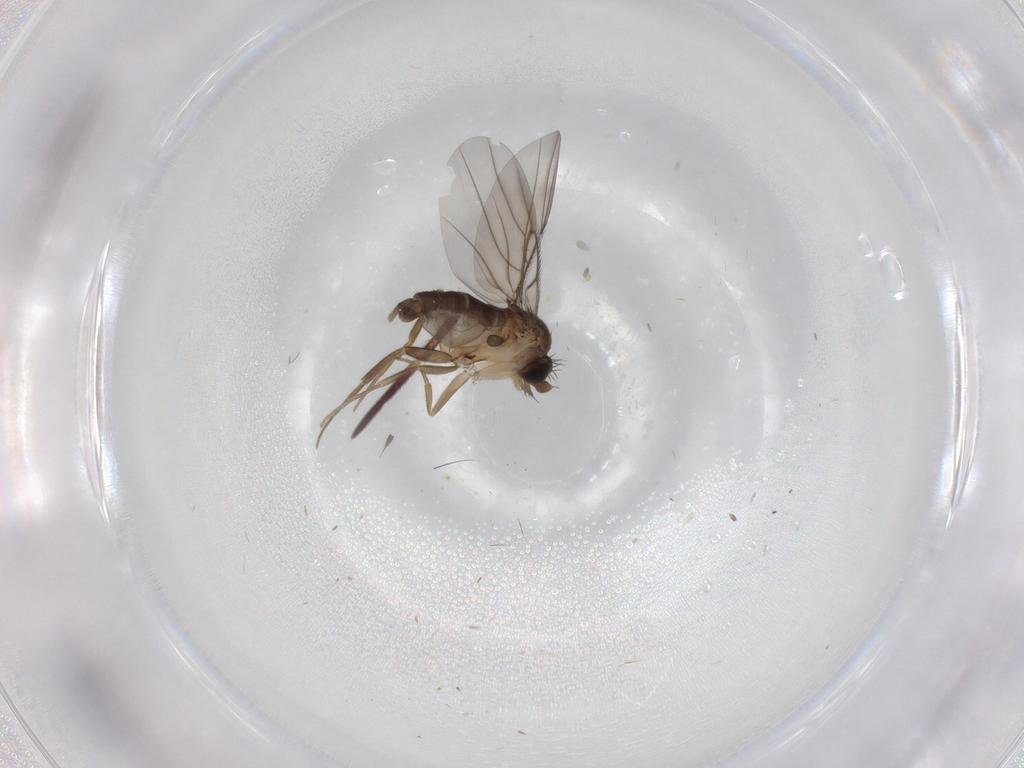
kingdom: Animalia
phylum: Arthropoda
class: Insecta
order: Diptera
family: Phoridae
